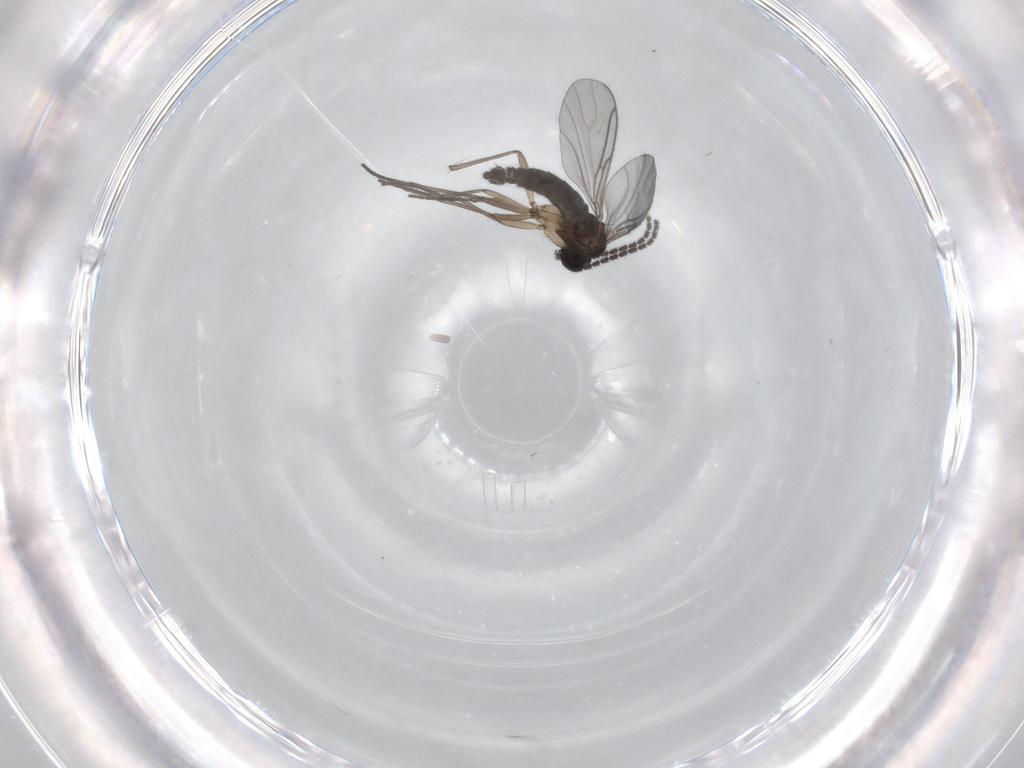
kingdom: Animalia
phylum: Arthropoda
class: Insecta
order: Diptera
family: Sciaridae
